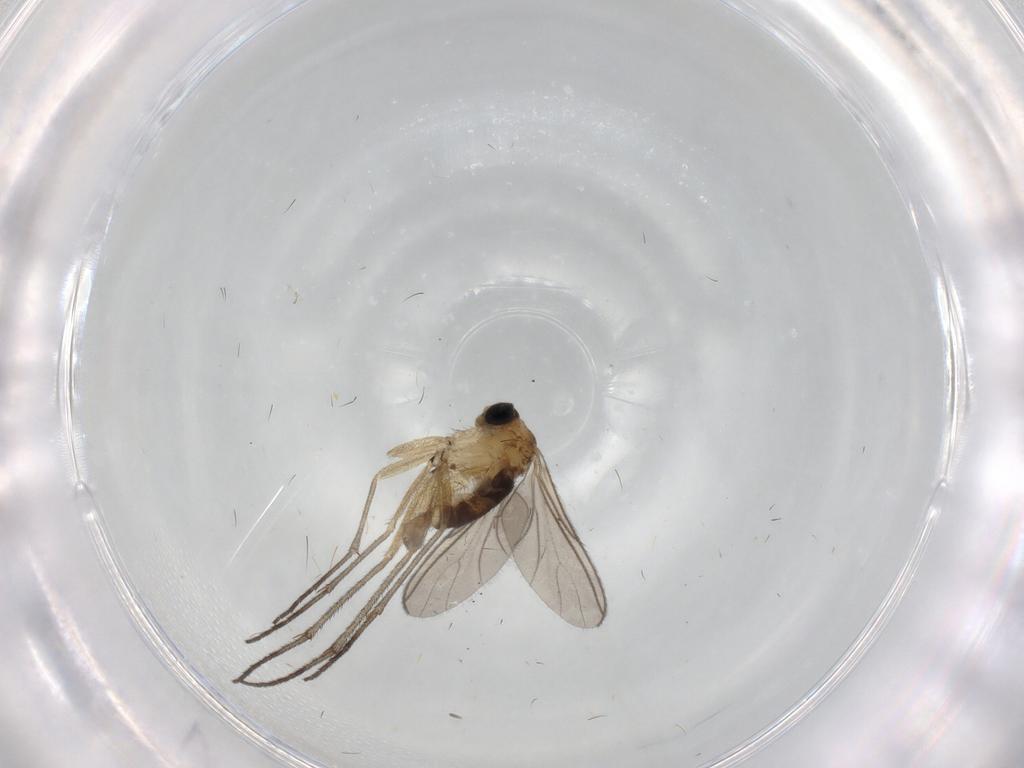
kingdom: Animalia
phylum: Arthropoda
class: Insecta
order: Diptera
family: Sciaridae
